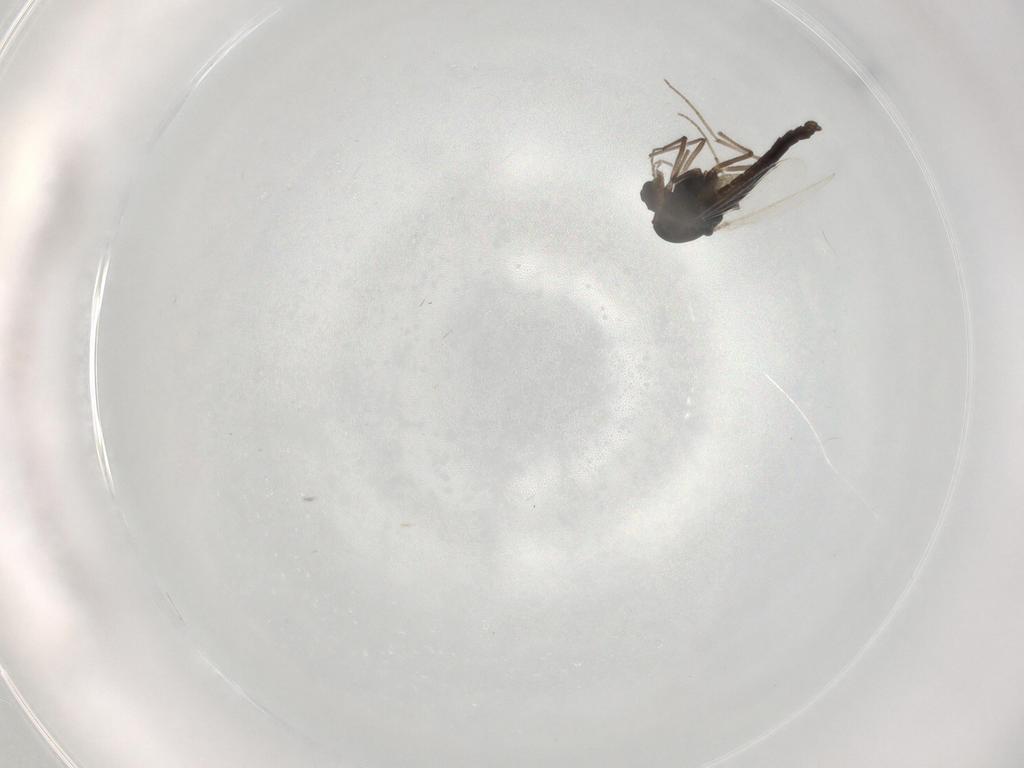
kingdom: Animalia
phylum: Arthropoda
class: Insecta
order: Diptera
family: Chironomidae
